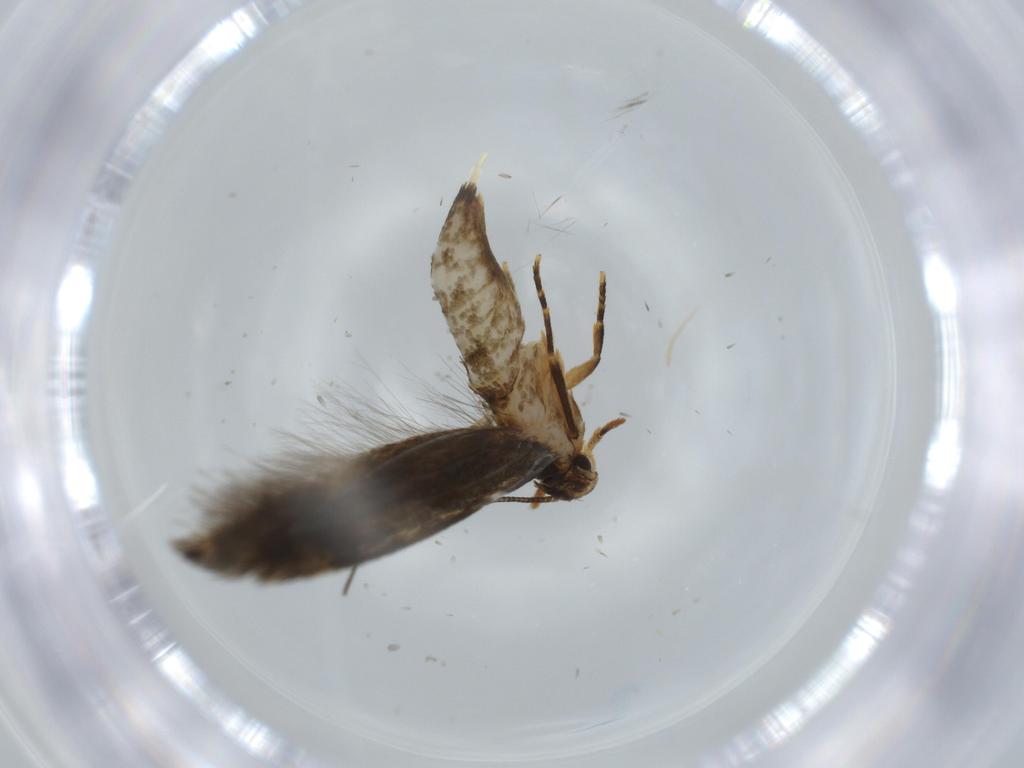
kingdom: Animalia
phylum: Arthropoda
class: Insecta
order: Lepidoptera
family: Tineidae
